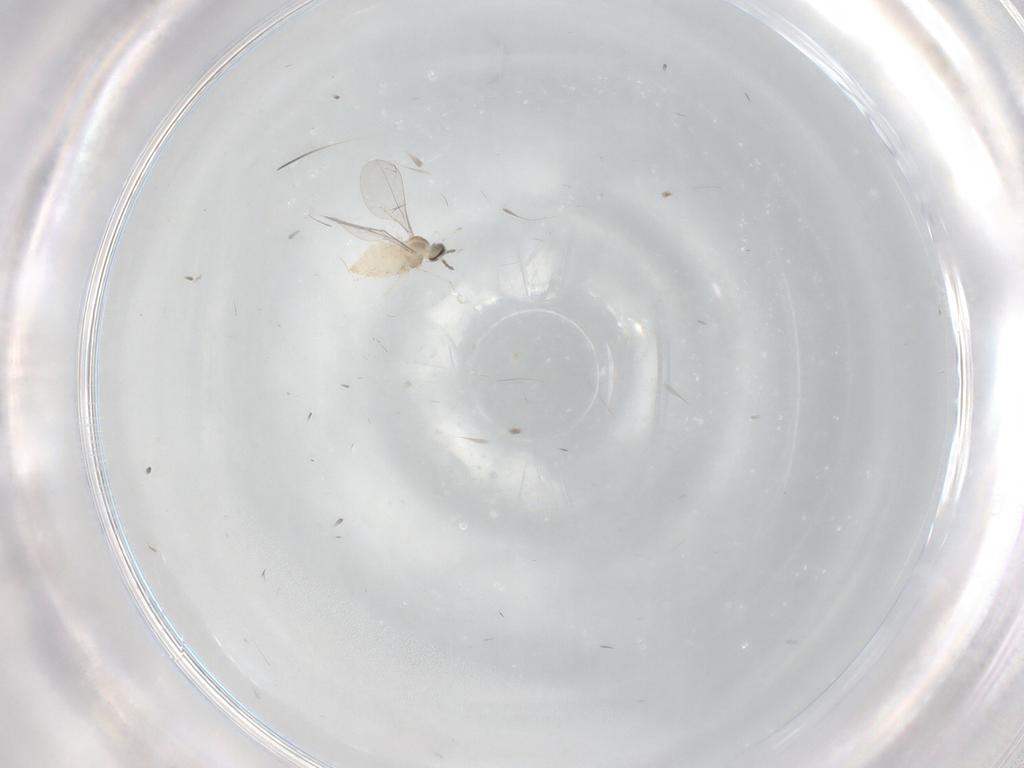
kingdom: Animalia
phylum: Arthropoda
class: Insecta
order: Diptera
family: Cecidomyiidae
